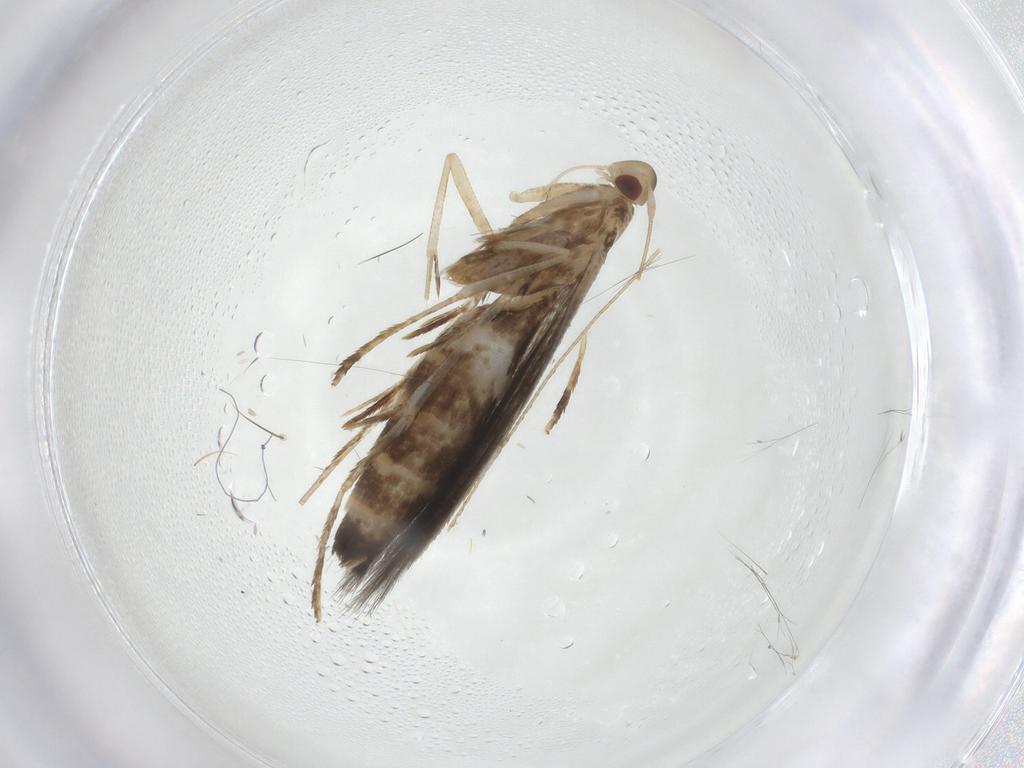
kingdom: Animalia
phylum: Arthropoda
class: Insecta
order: Lepidoptera
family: Cosmopterigidae
